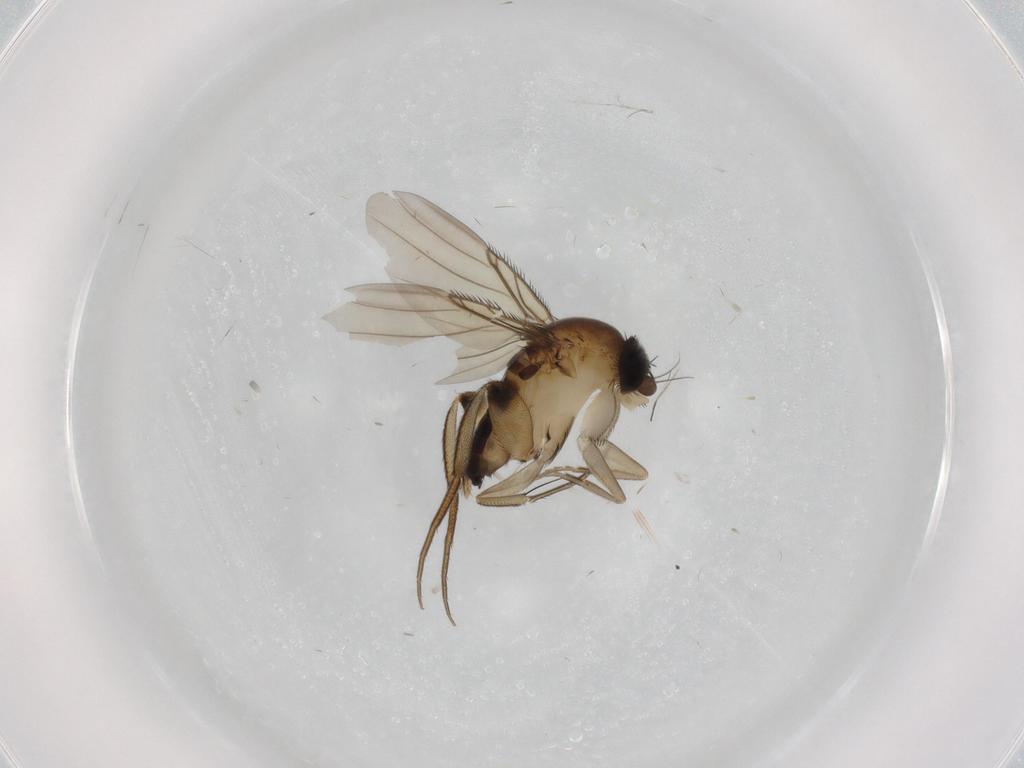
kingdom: Animalia
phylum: Arthropoda
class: Insecta
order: Diptera
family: Phoridae
